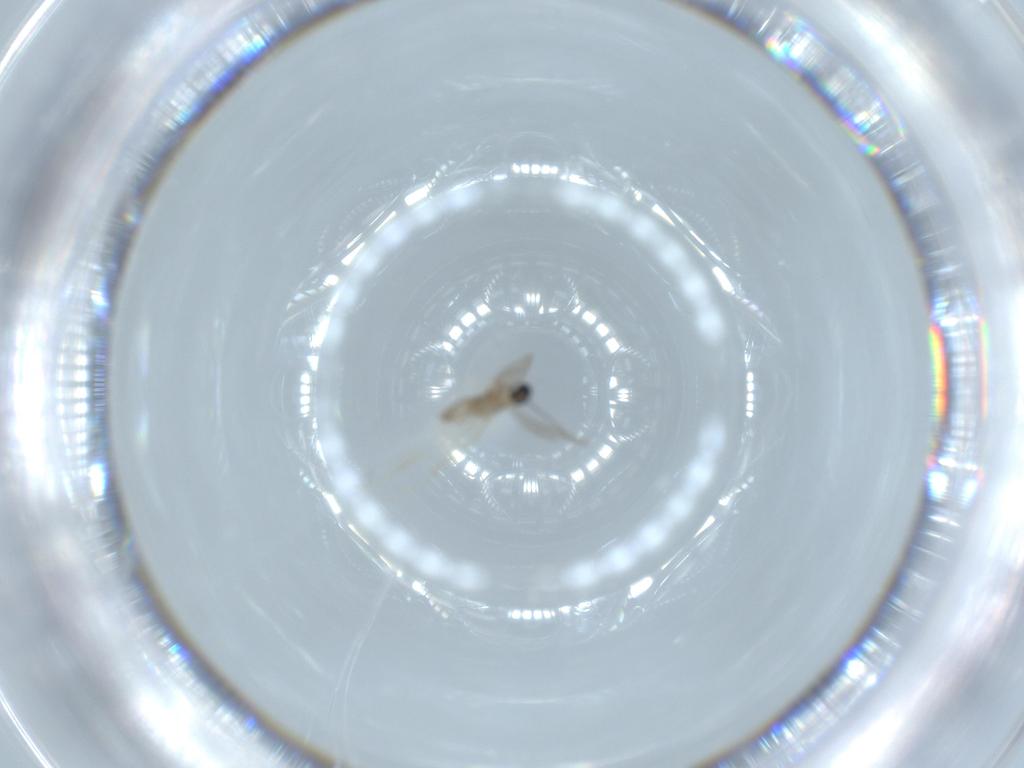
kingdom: Animalia
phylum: Arthropoda
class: Insecta
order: Diptera
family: Cecidomyiidae
